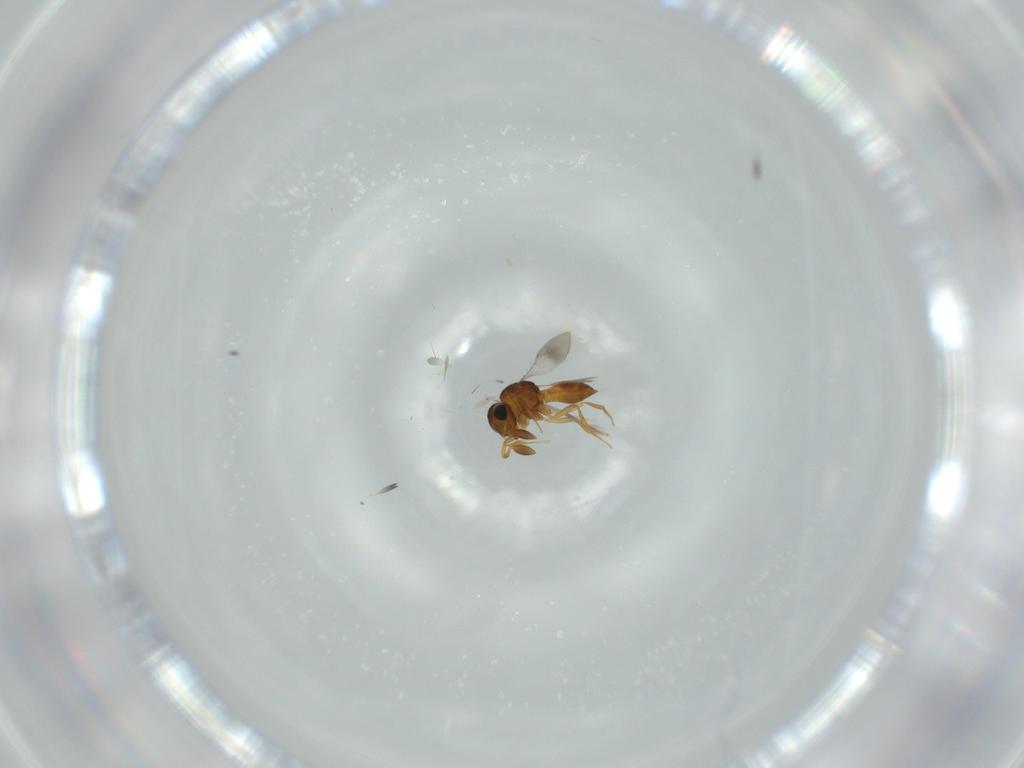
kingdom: Animalia
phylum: Arthropoda
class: Insecta
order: Hymenoptera
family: Scelionidae
